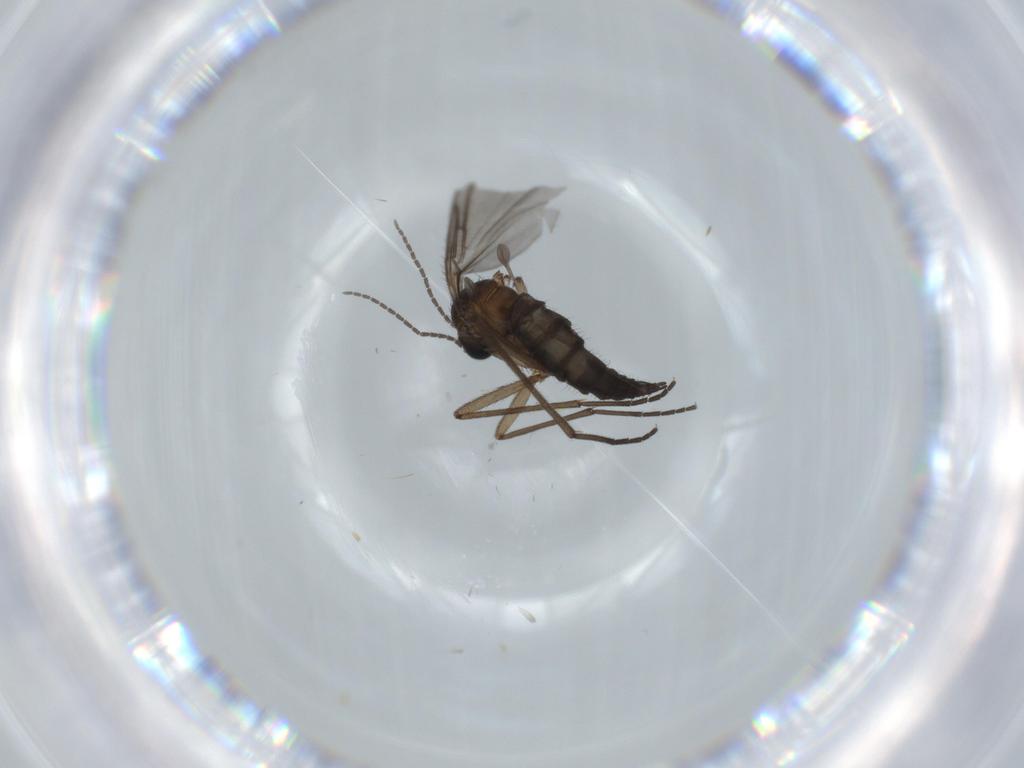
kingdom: Animalia
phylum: Arthropoda
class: Insecta
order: Diptera
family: Sciaridae
